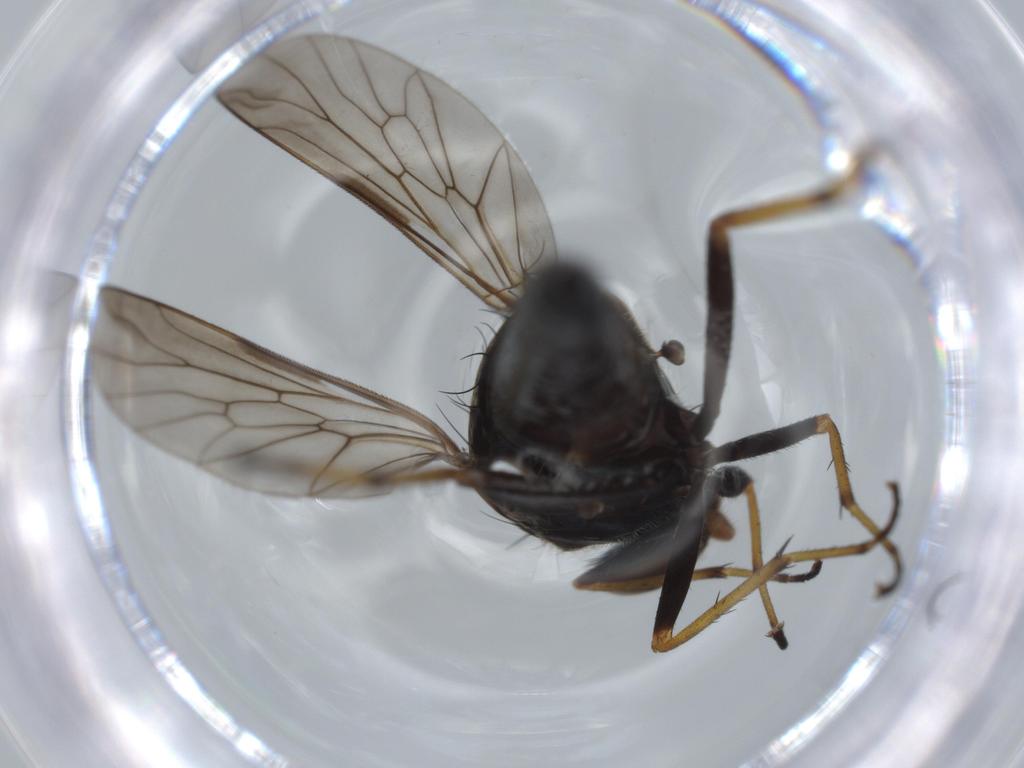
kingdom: Animalia
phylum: Arthropoda
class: Insecta
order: Diptera
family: Therevidae
